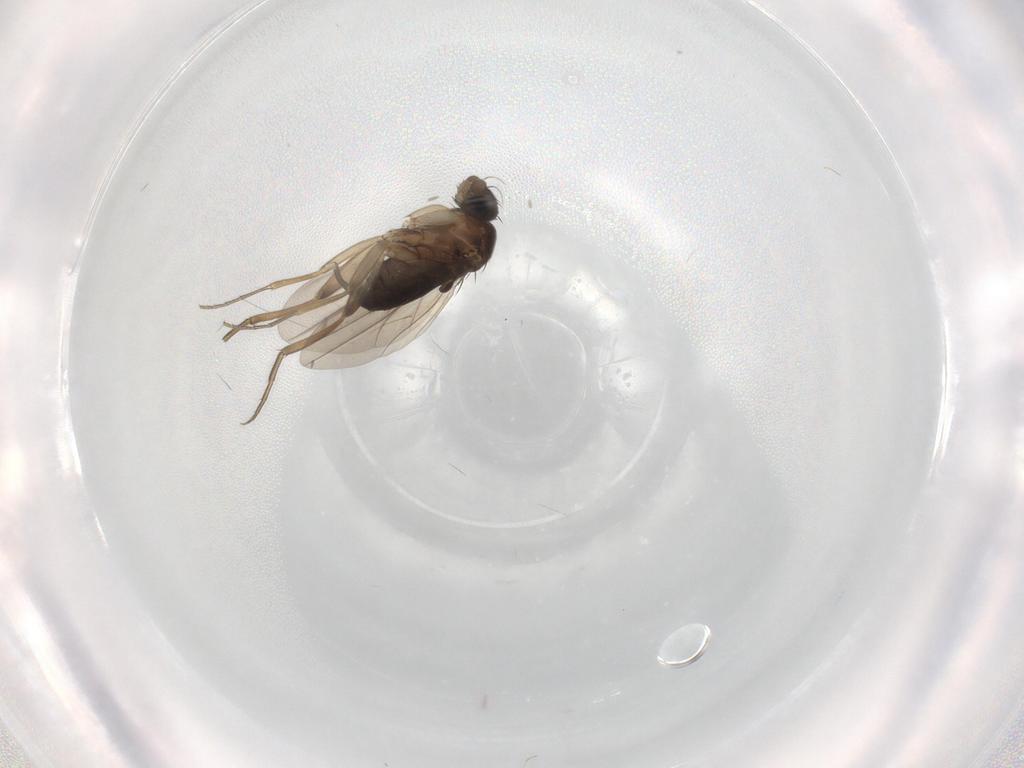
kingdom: Animalia
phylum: Arthropoda
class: Insecta
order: Diptera
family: Phoridae
